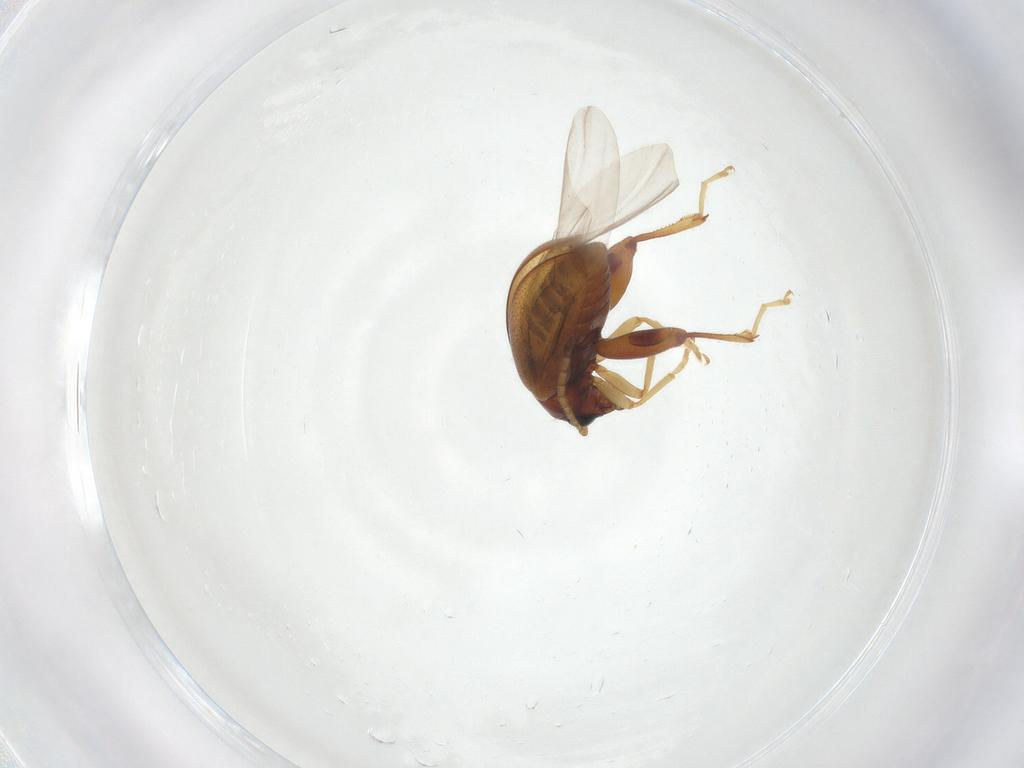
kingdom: Animalia
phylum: Arthropoda
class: Insecta
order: Coleoptera
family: Chrysomelidae
